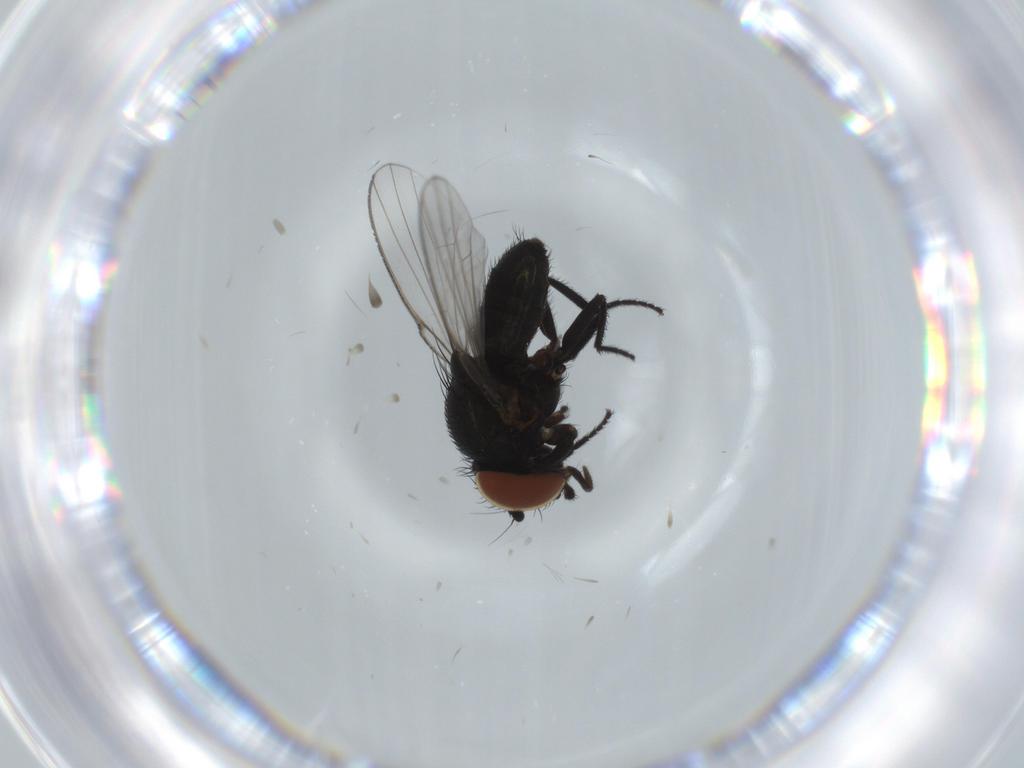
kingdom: Animalia
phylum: Arthropoda
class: Insecta
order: Diptera
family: Milichiidae
